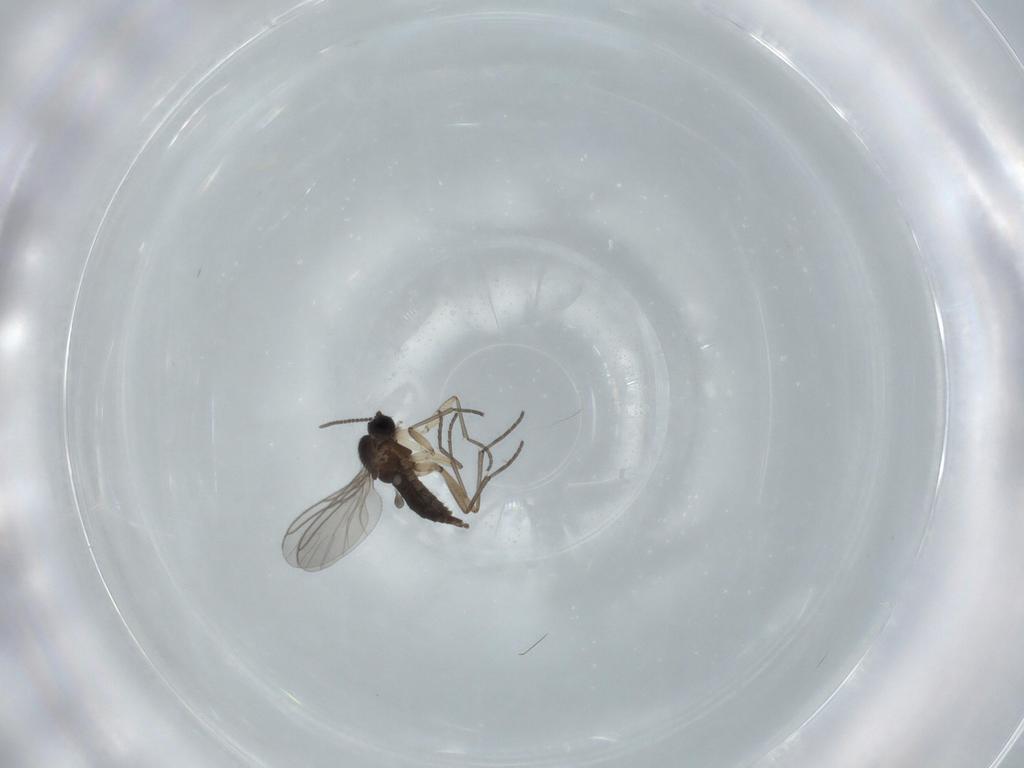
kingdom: Animalia
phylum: Arthropoda
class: Insecta
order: Diptera
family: Sciaridae
